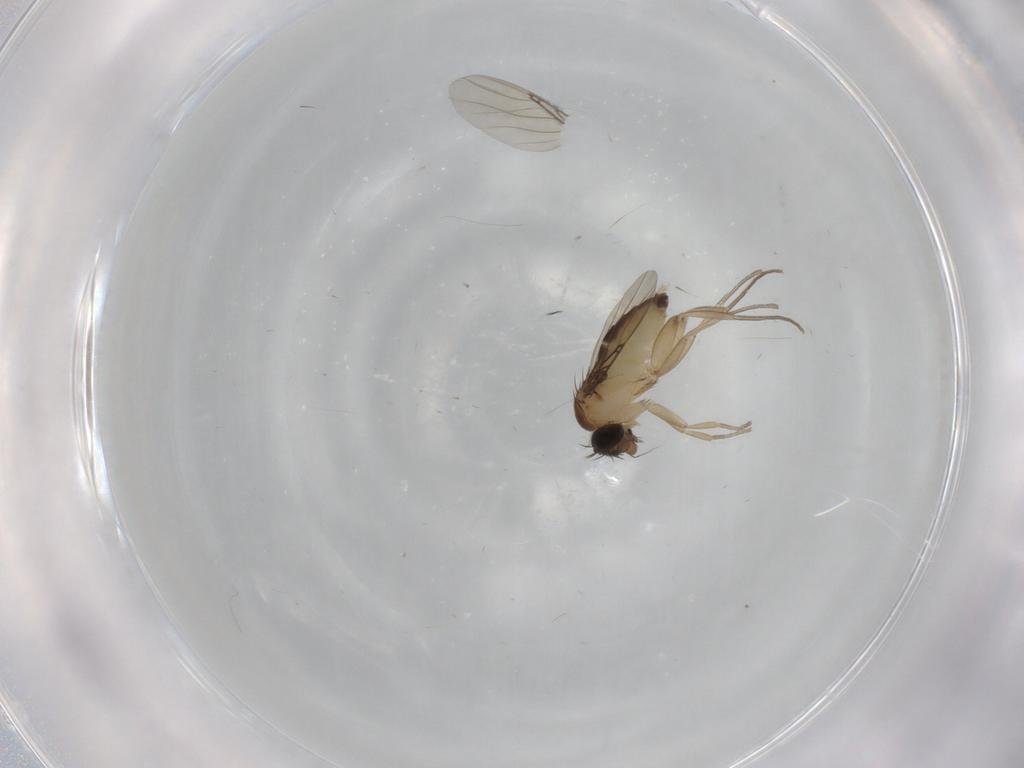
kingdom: Animalia
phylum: Arthropoda
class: Insecta
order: Diptera
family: Phoridae
